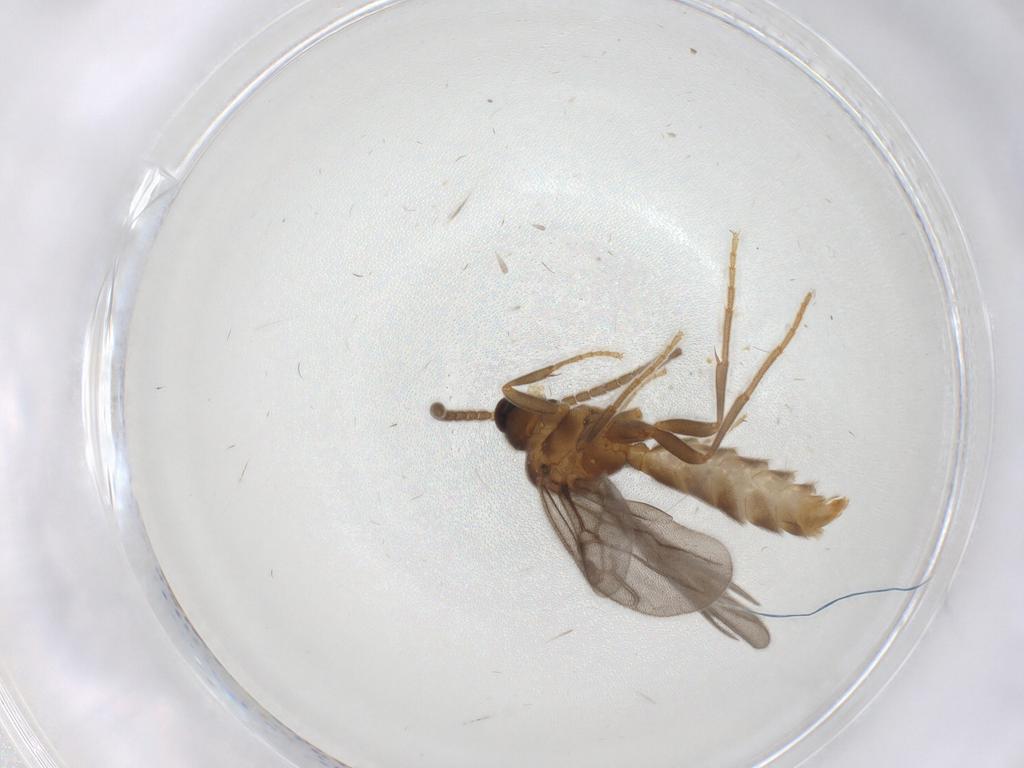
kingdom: Animalia
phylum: Arthropoda
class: Insecta
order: Hymenoptera
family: Formicidae
